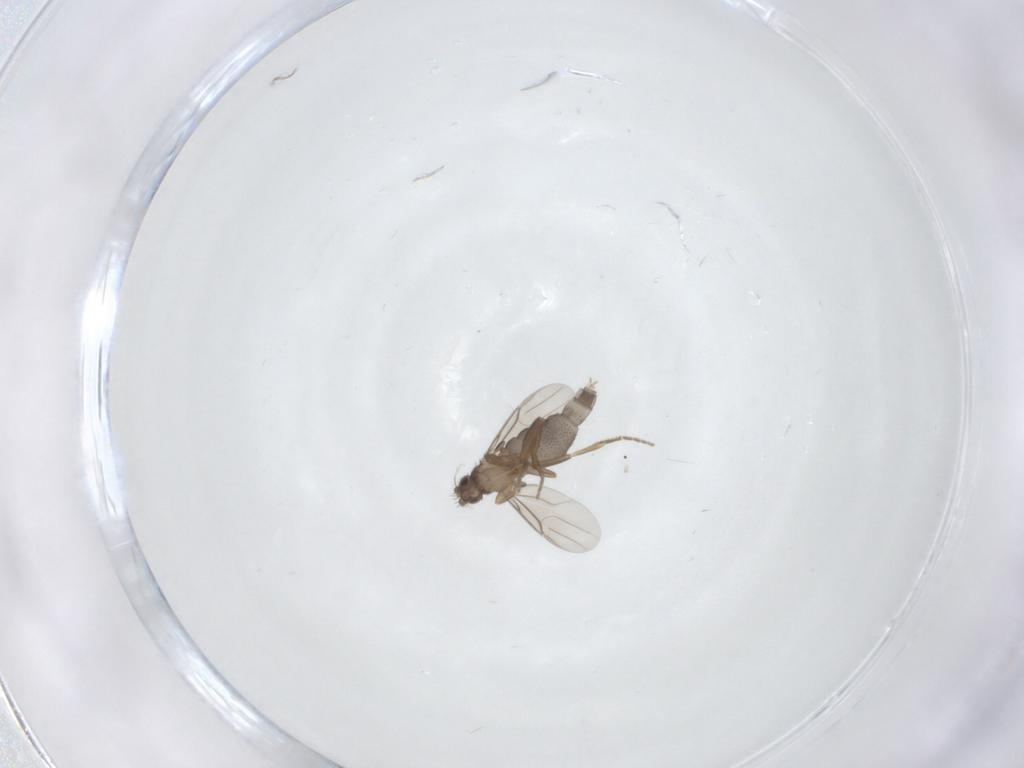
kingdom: Animalia
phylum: Arthropoda
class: Insecta
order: Diptera
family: Phoridae
